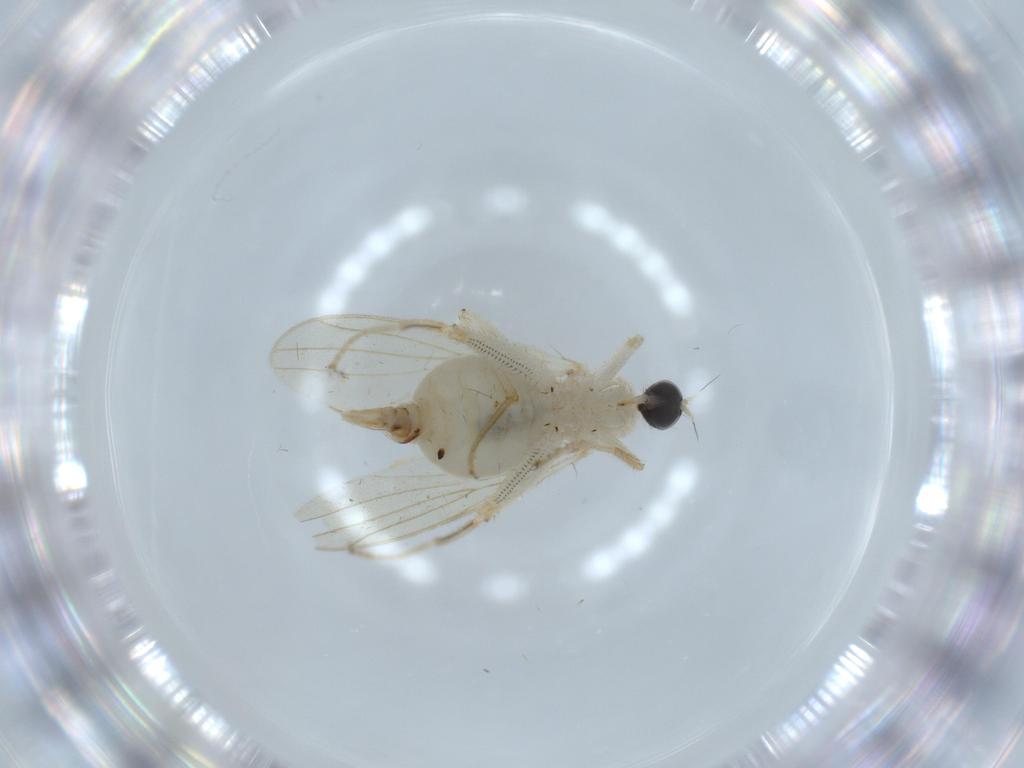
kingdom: Animalia
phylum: Arthropoda
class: Insecta
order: Diptera
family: Hybotidae
